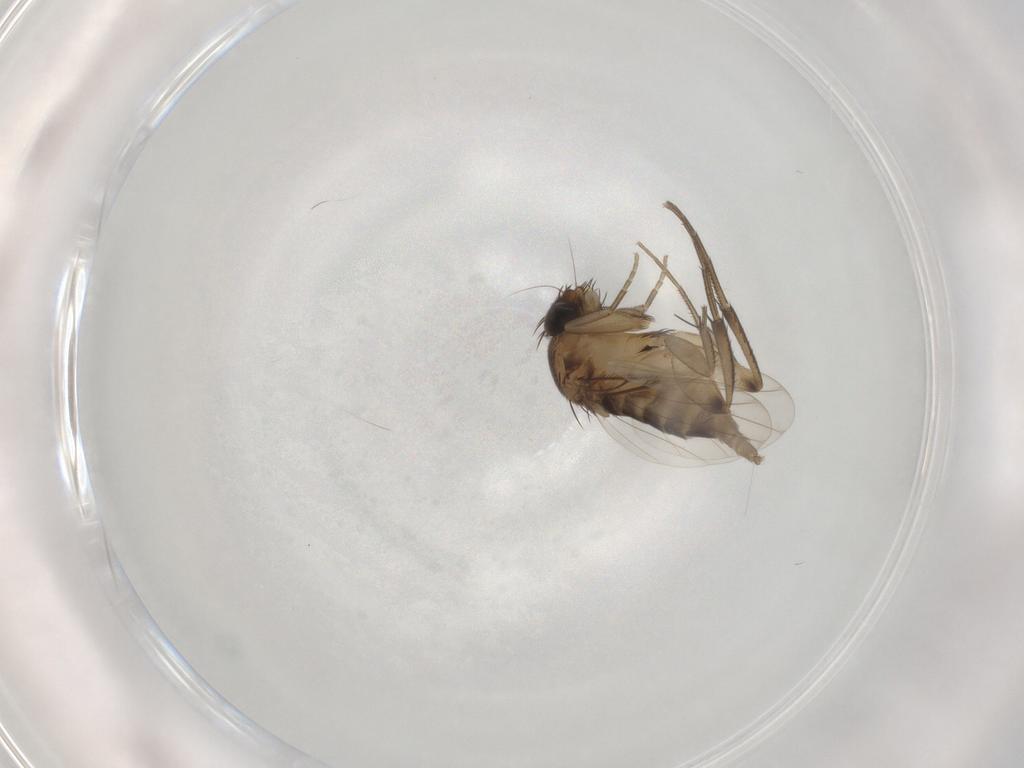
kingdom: Animalia
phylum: Arthropoda
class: Insecta
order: Diptera
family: Phoridae
